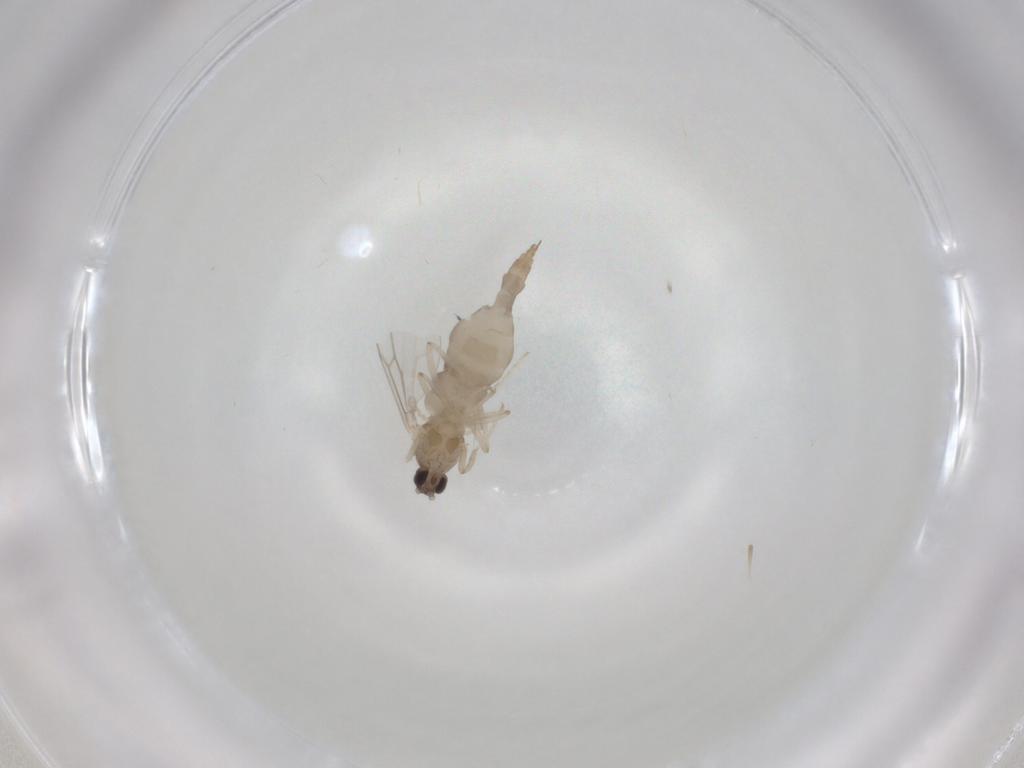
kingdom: Animalia
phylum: Arthropoda
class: Insecta
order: Diptera
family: Cecidomyiidae
